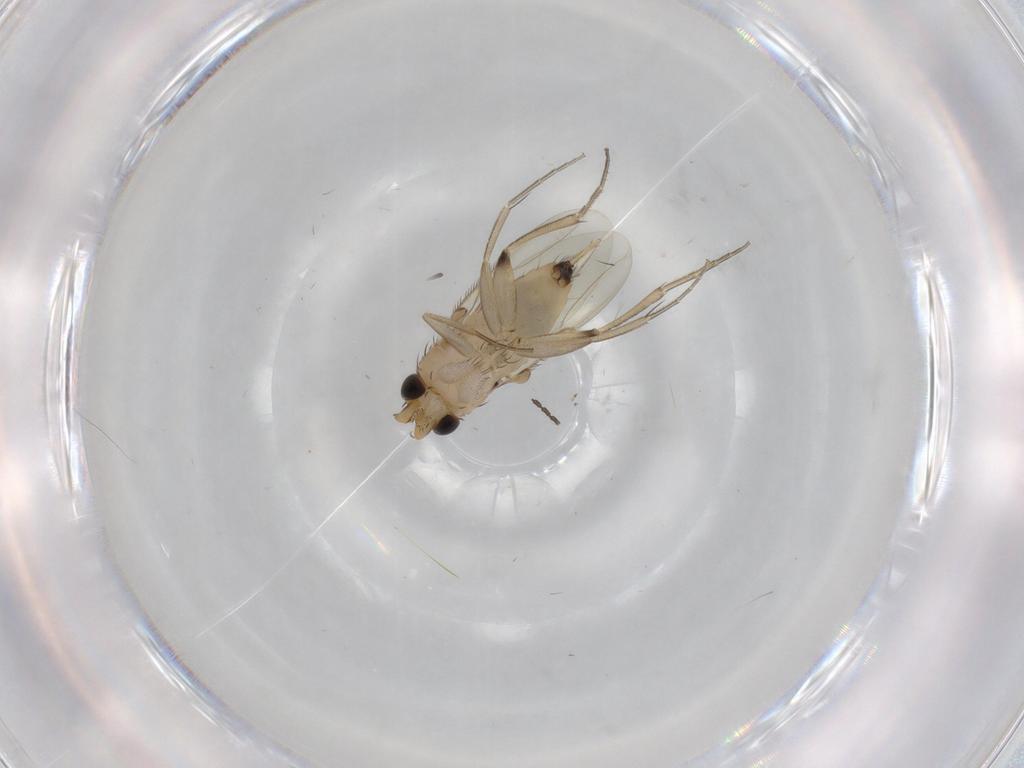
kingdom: Animalia
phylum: Arthropoda
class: Insecta
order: Diptera
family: Phoridae
